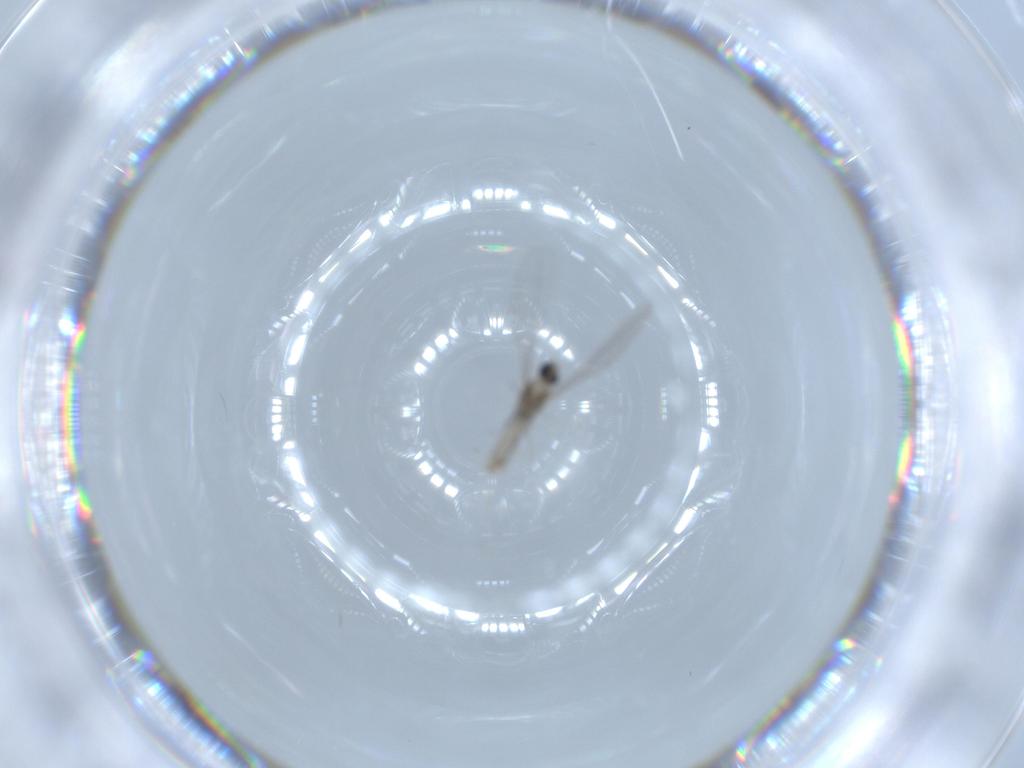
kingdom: Animalia
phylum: Arthropoda
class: Insecta
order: Diptera
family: Cecidomyiidae
